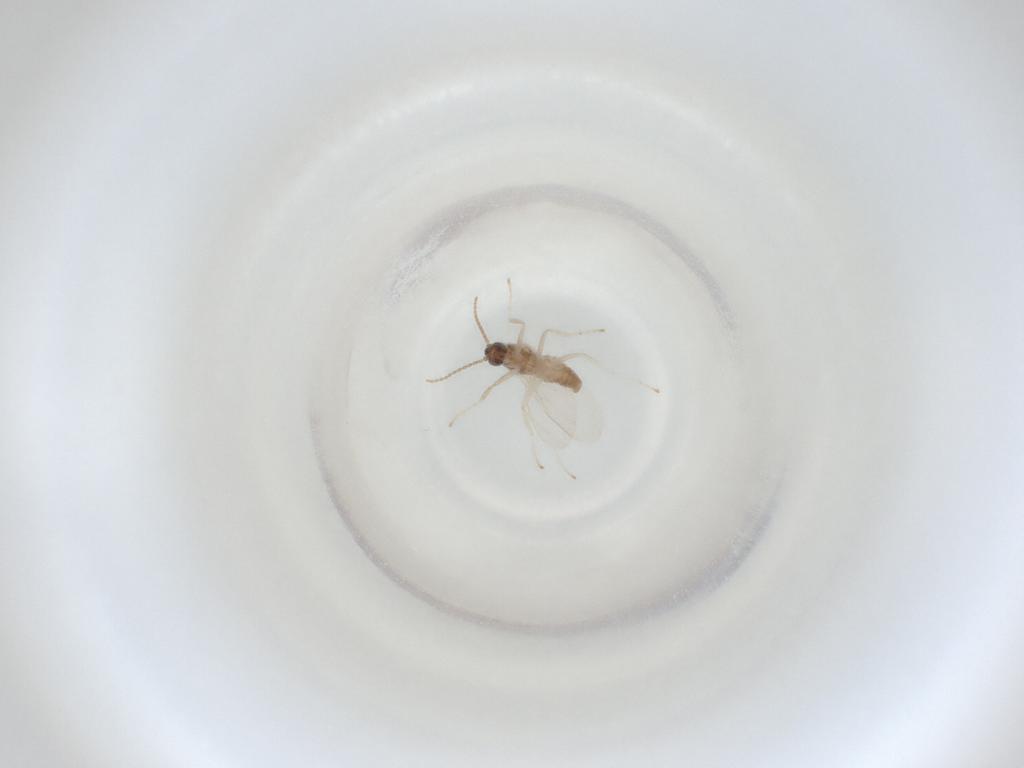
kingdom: Animalia
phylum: Arthropoda
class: Insecta
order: Diptera
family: Cecidomyiidae
